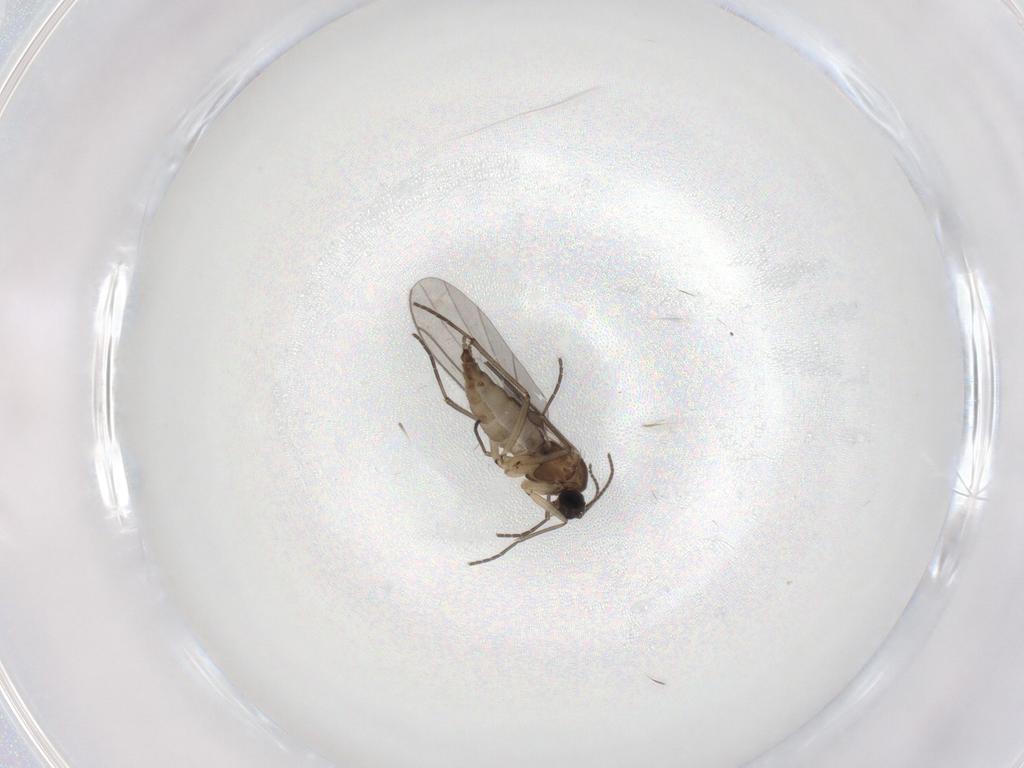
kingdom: Animalia
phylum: Arthropoda
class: Insecta
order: Diptera
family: Sciaridae
